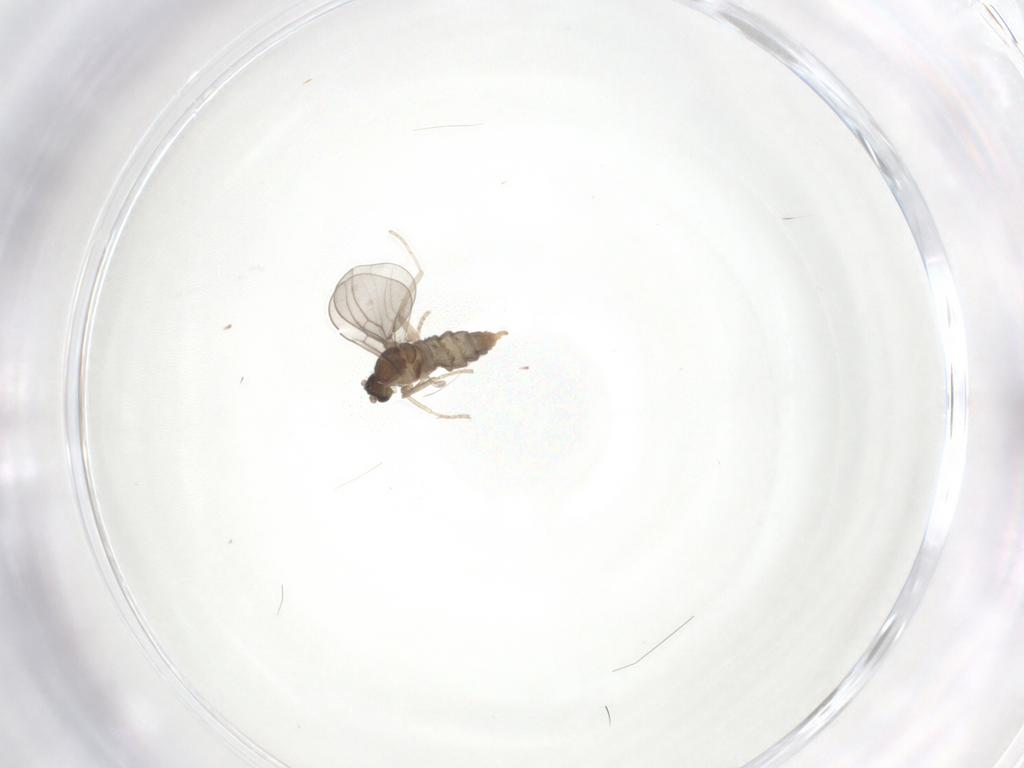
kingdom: Animalia
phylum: Arthropoda
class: Insecta
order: Diptera
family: Cecidomyiidae
